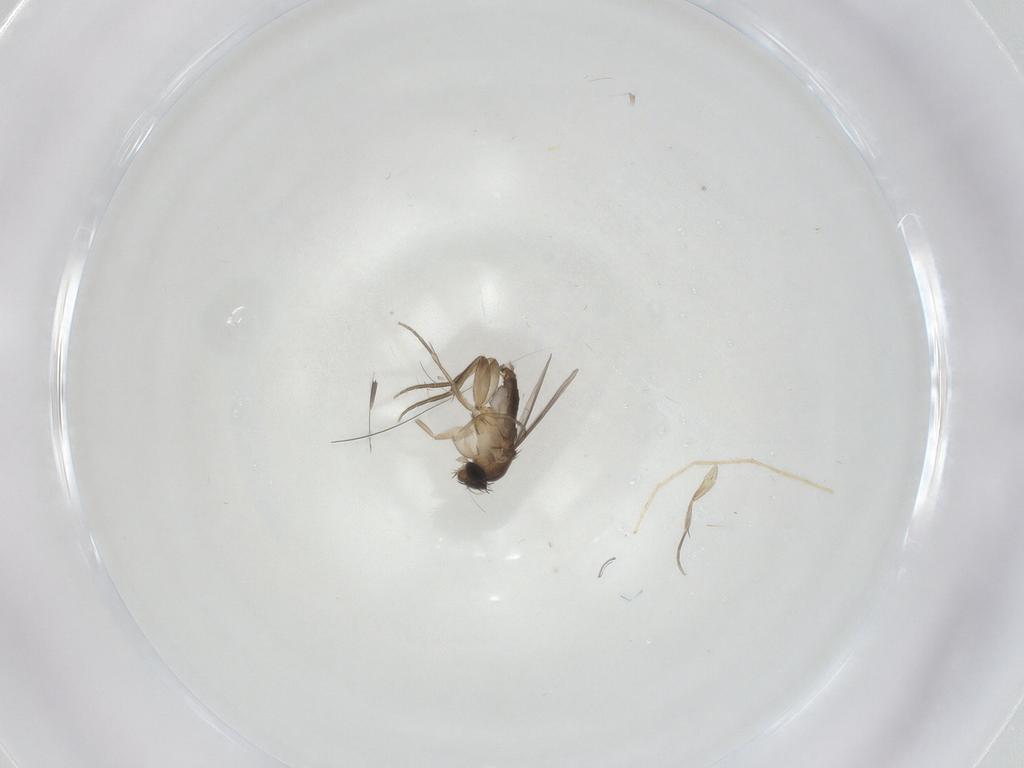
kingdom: Animalia
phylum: Arthropoda
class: Insecta
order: Diptera
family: Chironomidae
